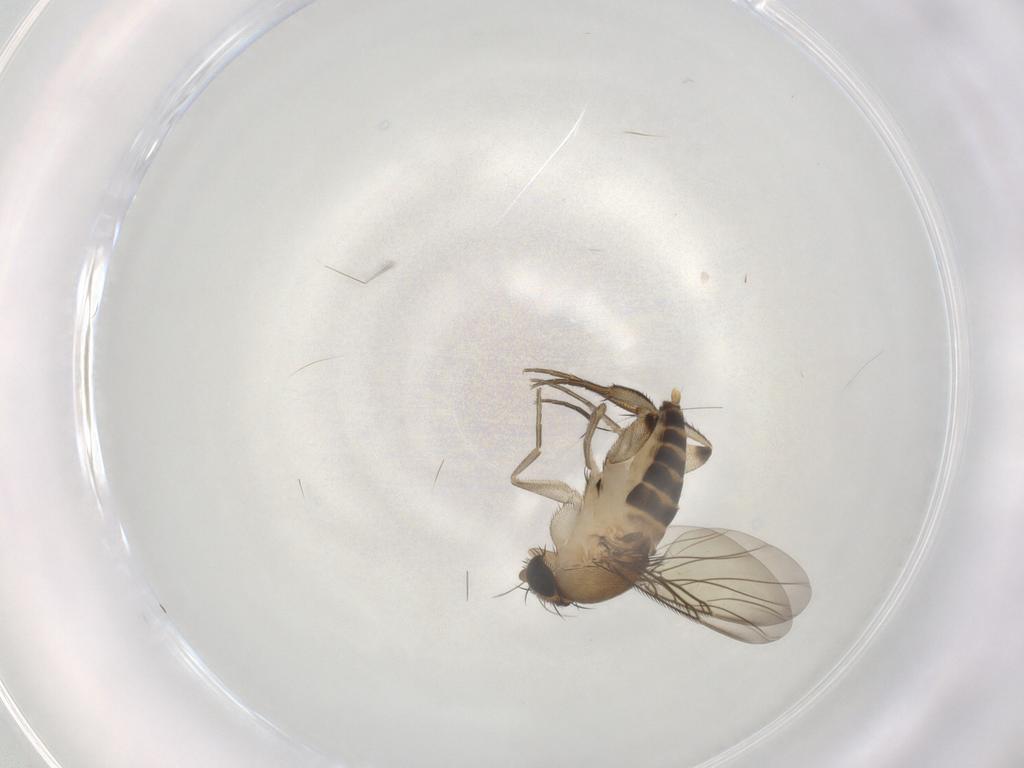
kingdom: Animalia
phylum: Arthropoda
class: Insecta
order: Diptera
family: Phoridae
